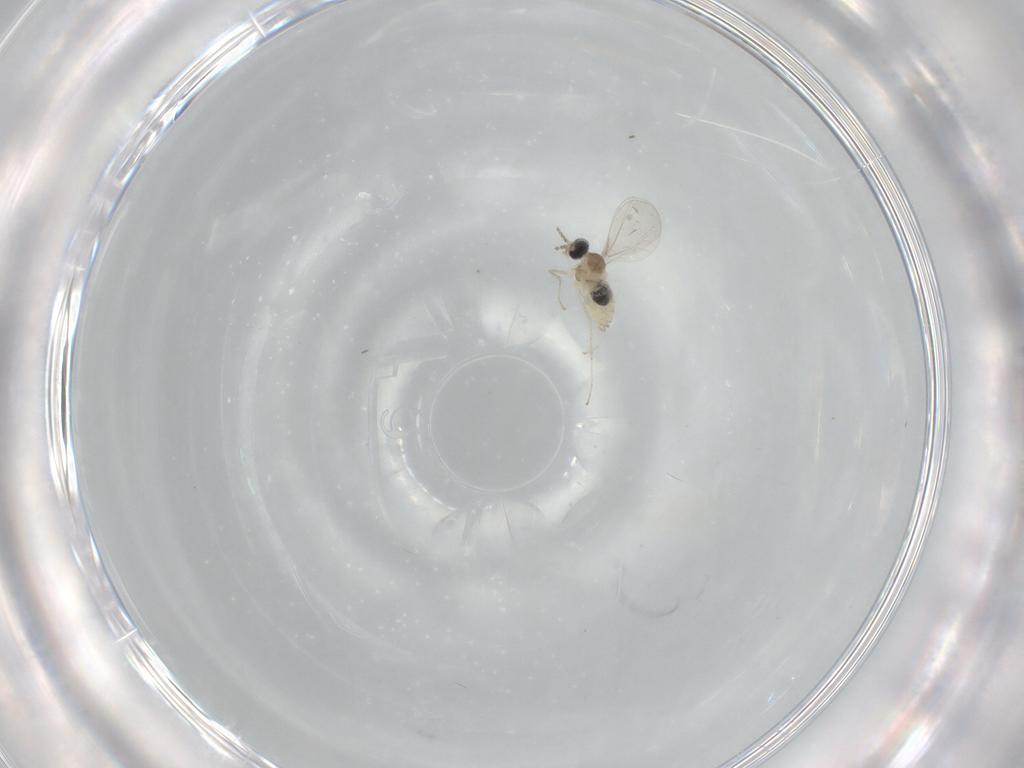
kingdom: Animalia
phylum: Arthropoda
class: Insecta
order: Diptera
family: Cecidomyiidae
